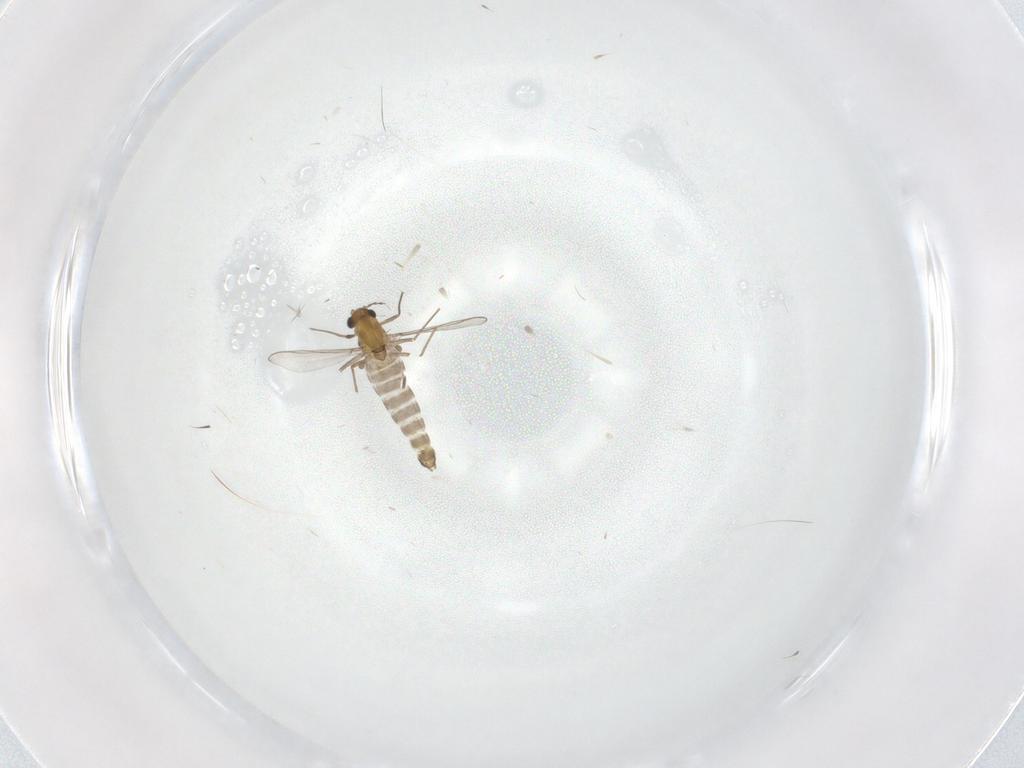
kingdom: Animalia
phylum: Arthropoda
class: Insecta
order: Diptera
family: Chironomidae
